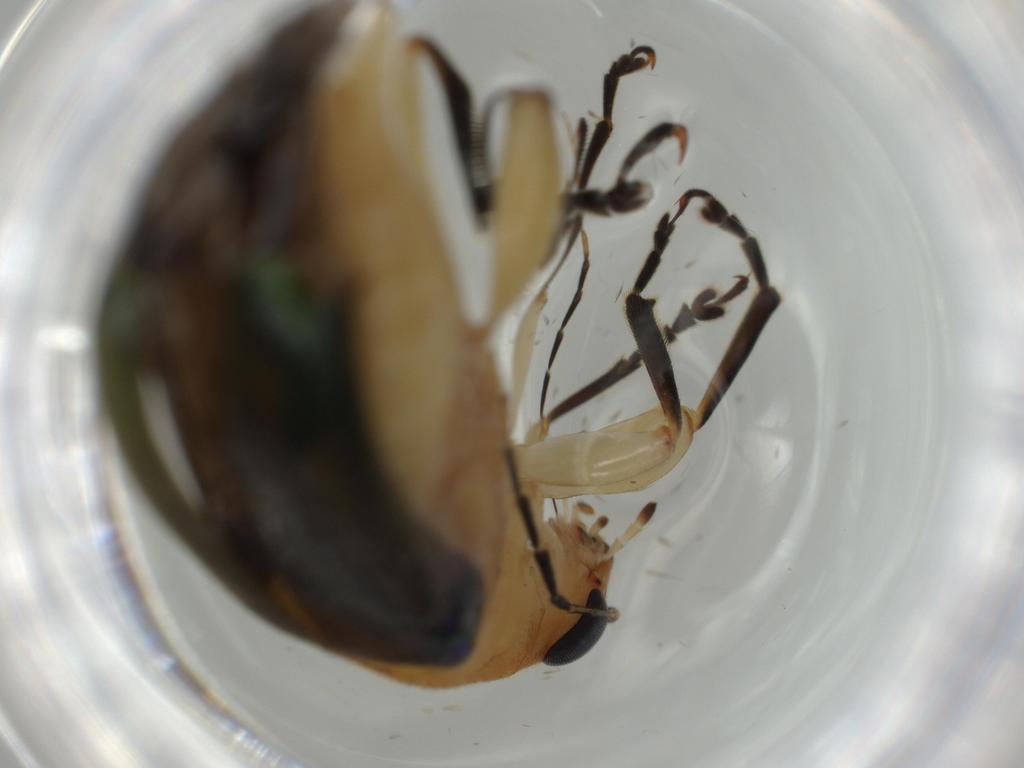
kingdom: Animalia
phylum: Arthropoda
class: Insecta
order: Coleoptera
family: Chrysomelidae
